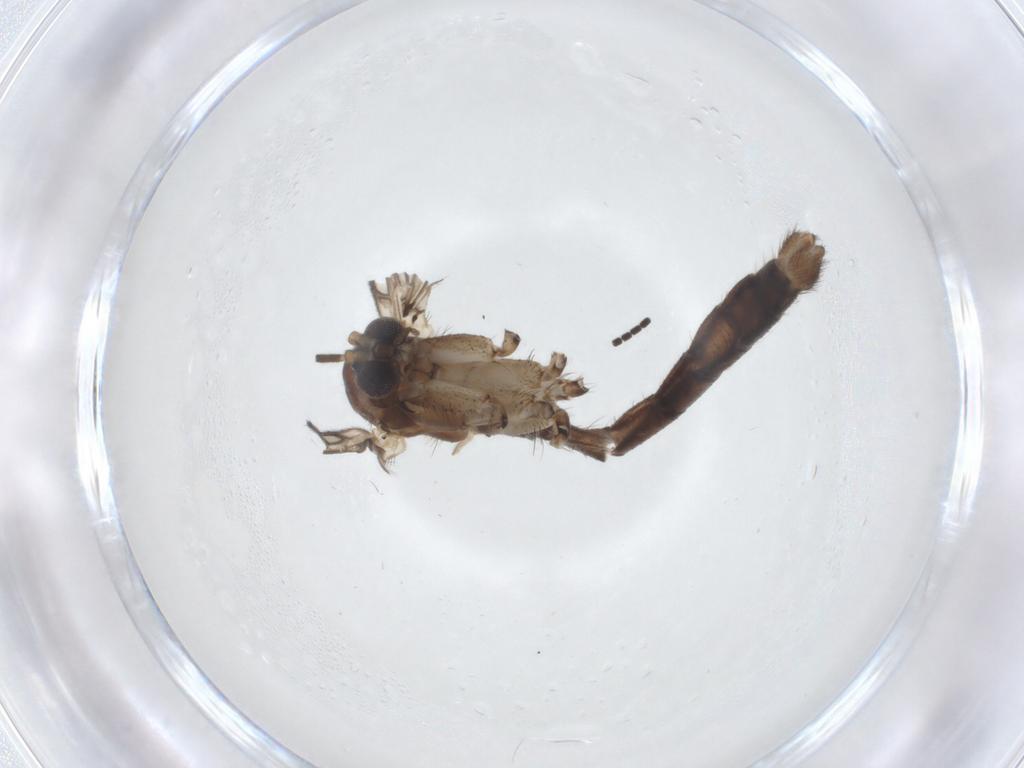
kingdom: Animalia
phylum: Arthropoda
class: Insecta
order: Diptera
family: Mycetophilidae
